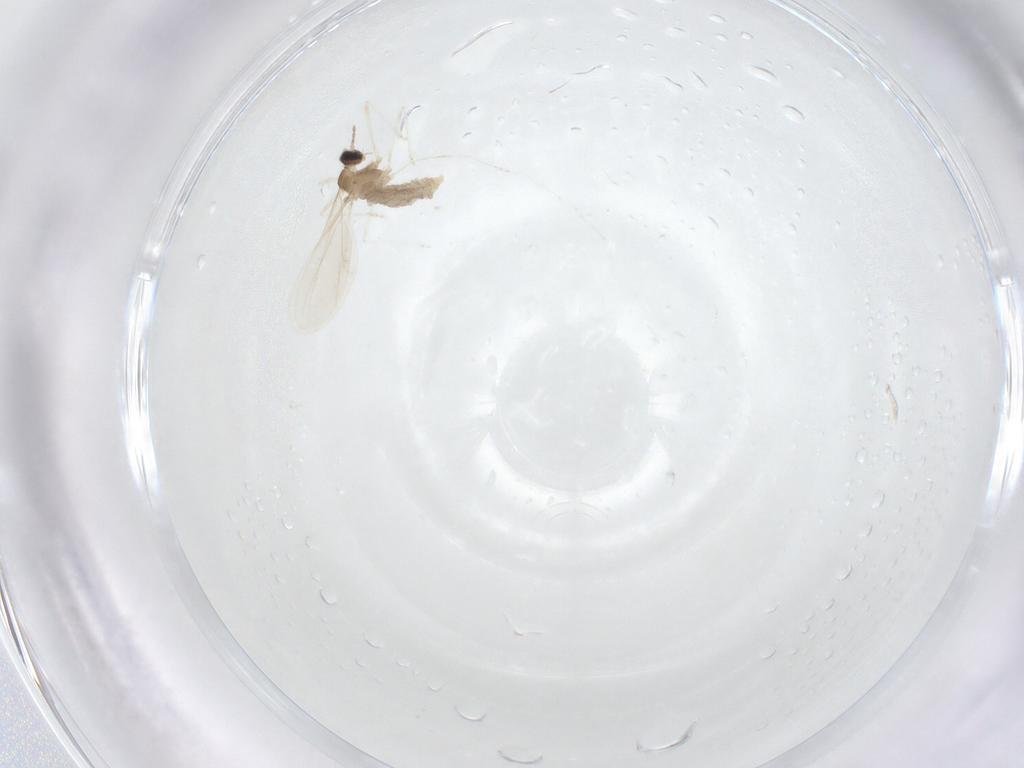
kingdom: Animalia
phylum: Arthropoda
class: Insecta
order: Diptera
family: Cecidomyiidae
